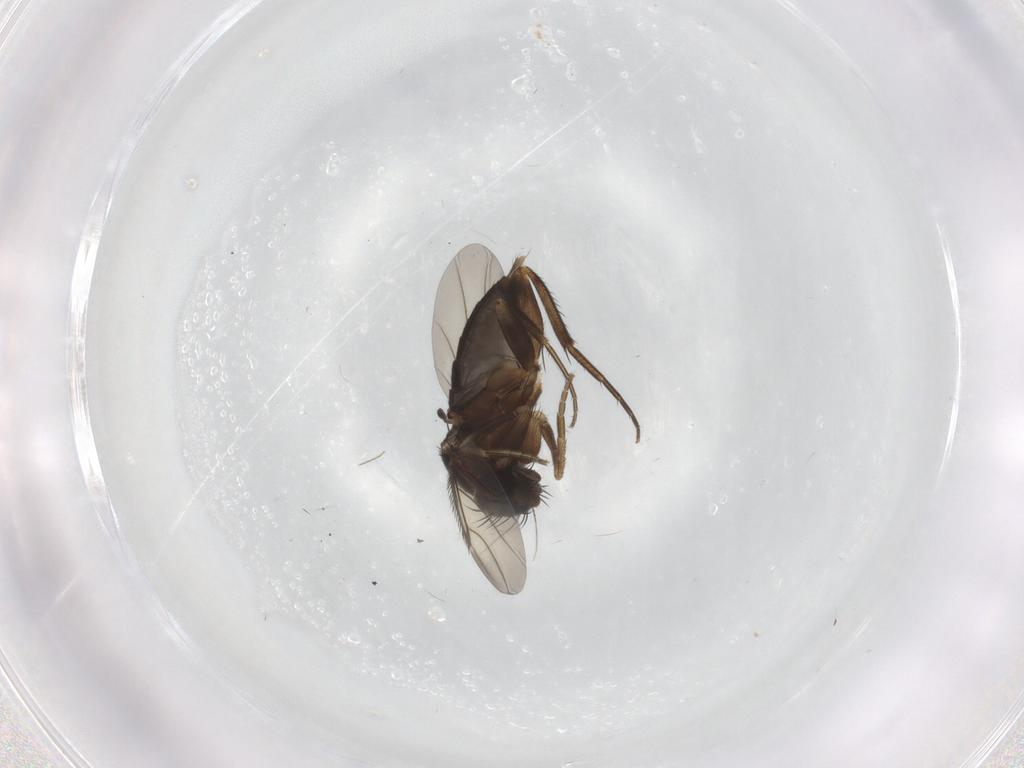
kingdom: Animalia
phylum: Arthropoda
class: Insecta
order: Diptera
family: Phoridae
